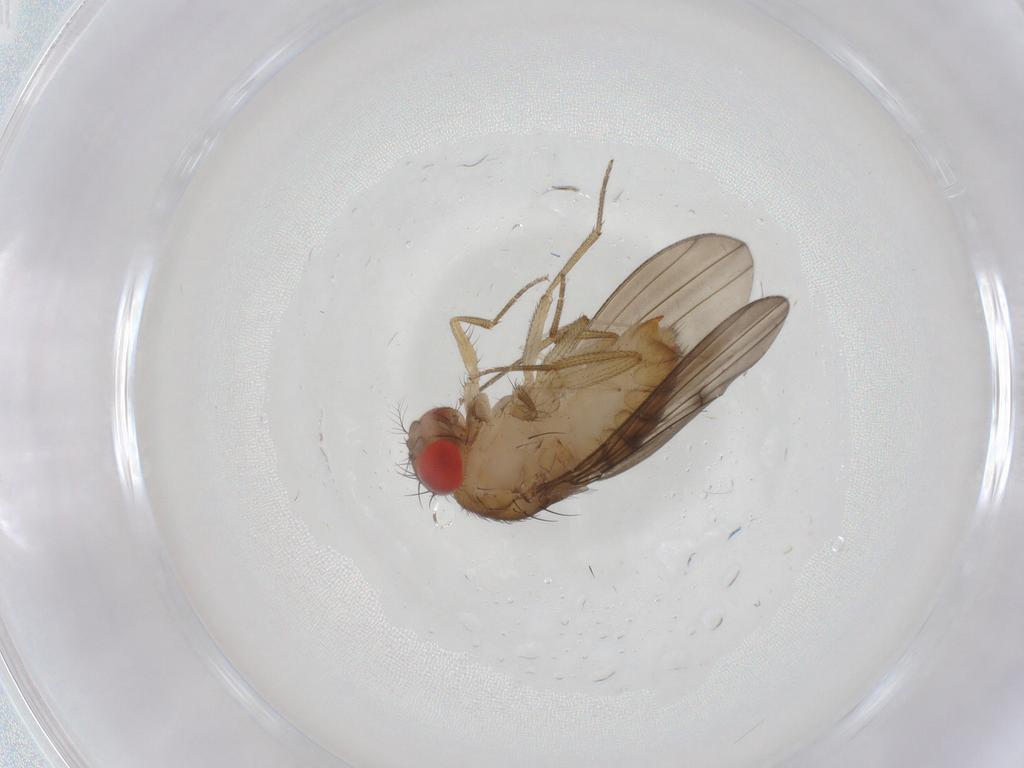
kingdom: Animalia
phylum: Arthropoda
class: Insecta
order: Diptera
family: Drosophilidae
